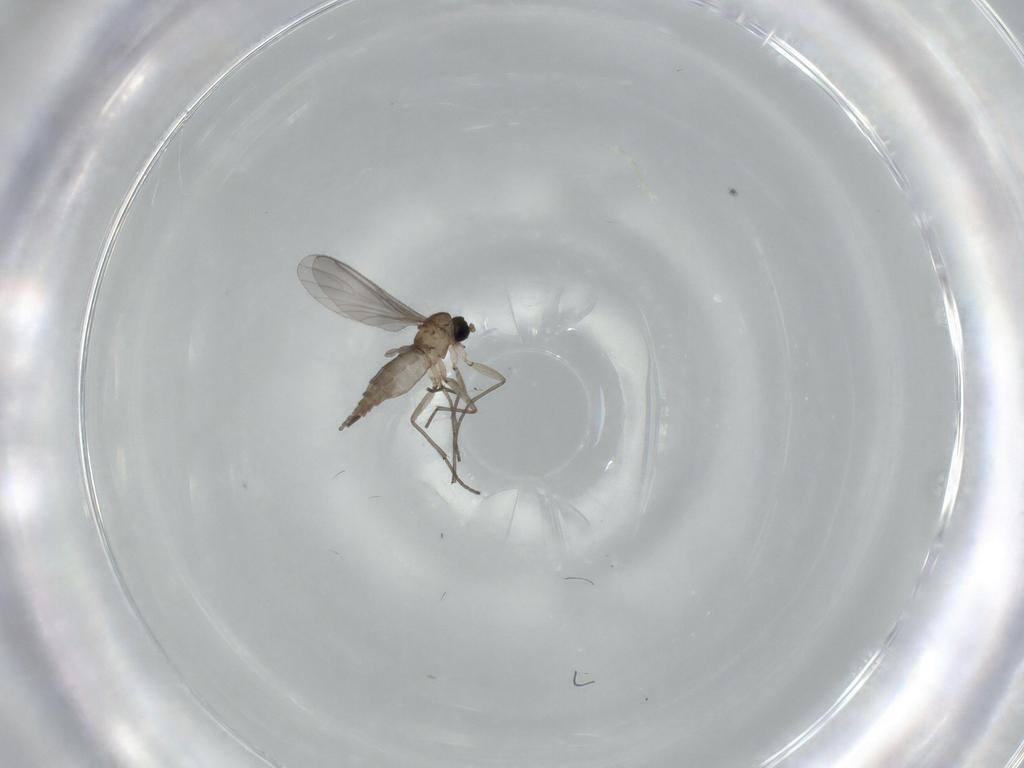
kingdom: Animalia
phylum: Arthropoda
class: Insecta
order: Diptera
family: Sciaridae
